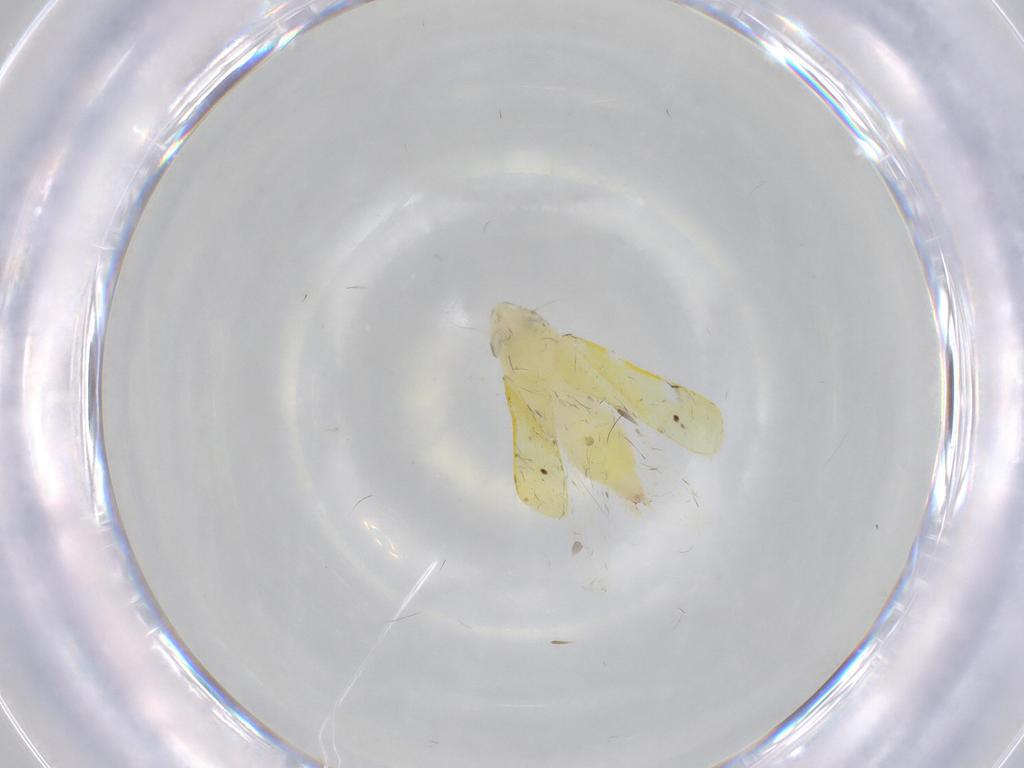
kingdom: Animalia
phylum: Arthropoda
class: Insecta
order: Hemiptera
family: Cicadellidae
